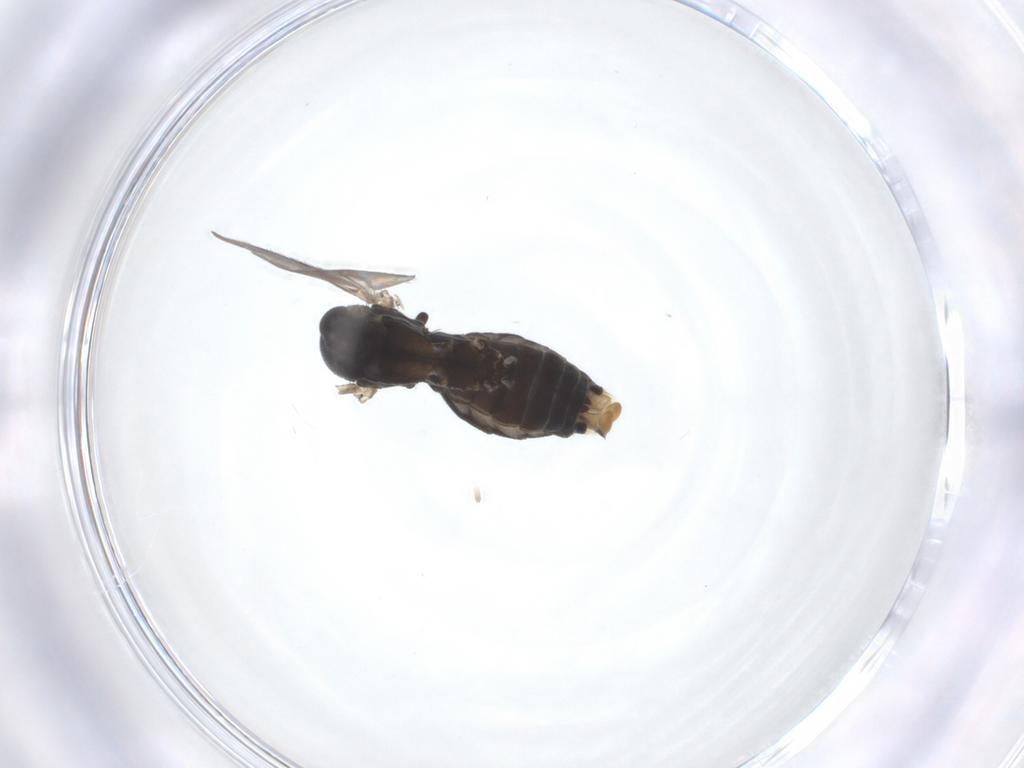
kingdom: Animalia
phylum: Arthropoda
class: Insecta
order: Diptera
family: Mycetophilidae
